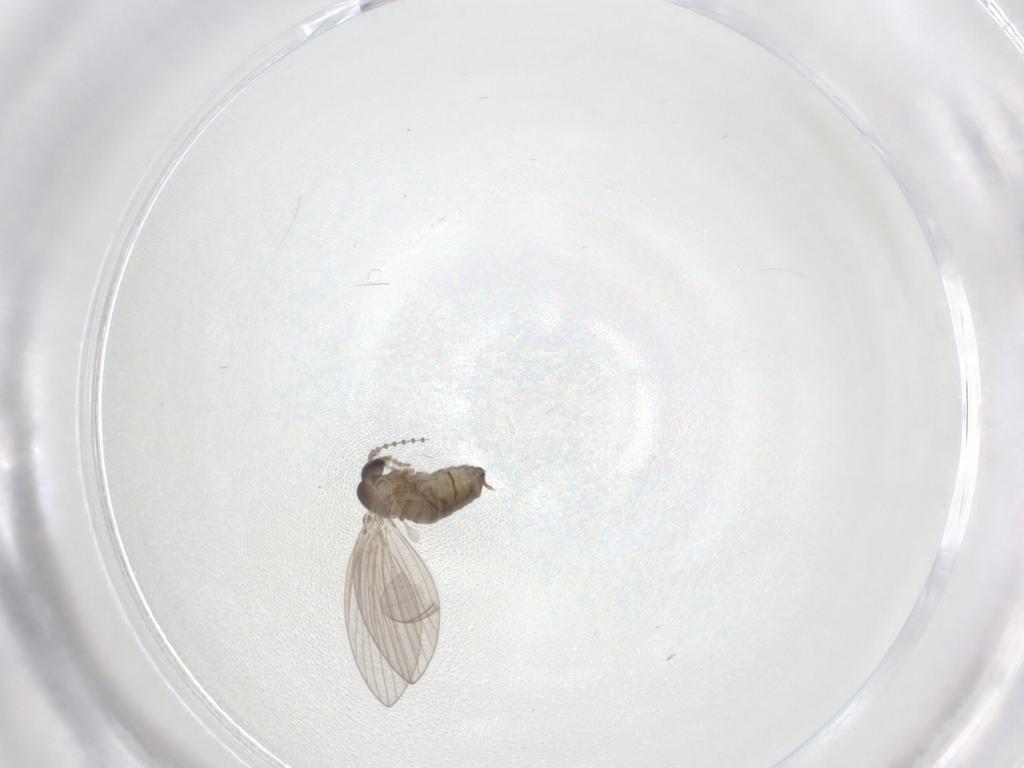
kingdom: Animalia
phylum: Arthropoda
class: Insecta
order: Diptera
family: Psychodidae
